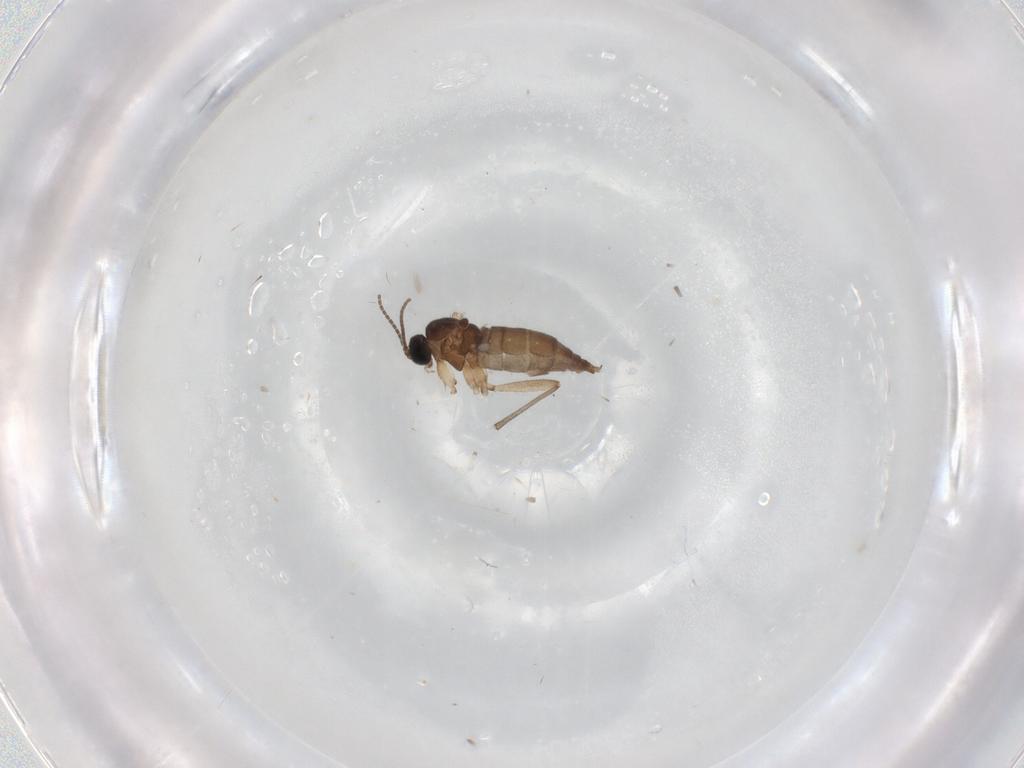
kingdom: Animalia
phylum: Arthropoda
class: Insecta
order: Diptera
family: Sciaridae
